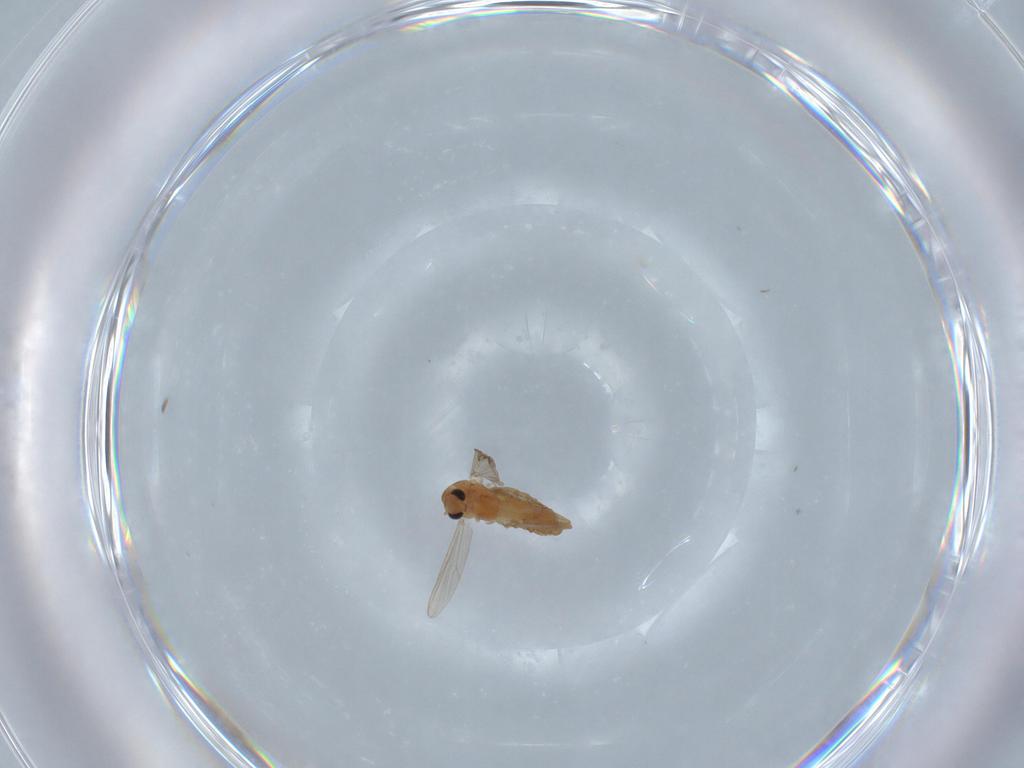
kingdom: Animalia
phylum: Arthropoda
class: Insecta
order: Diptera
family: Chironomidae
